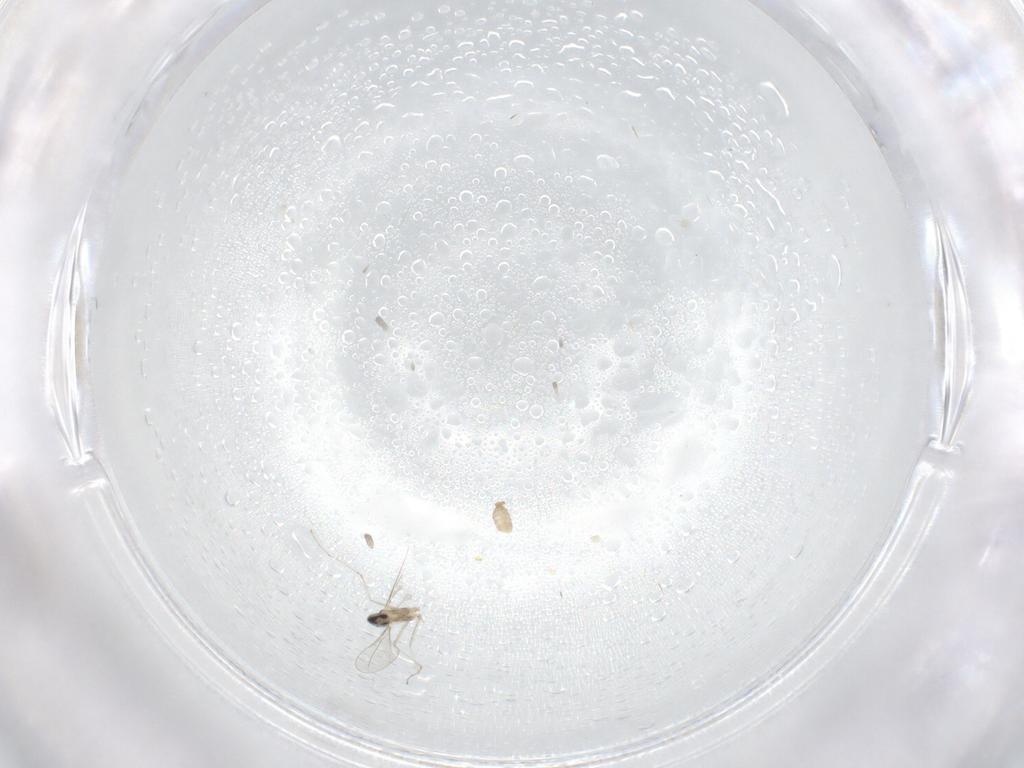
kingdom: Animalia
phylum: Arthropoda
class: Insecta
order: Diptera
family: Cecidomyiidae
